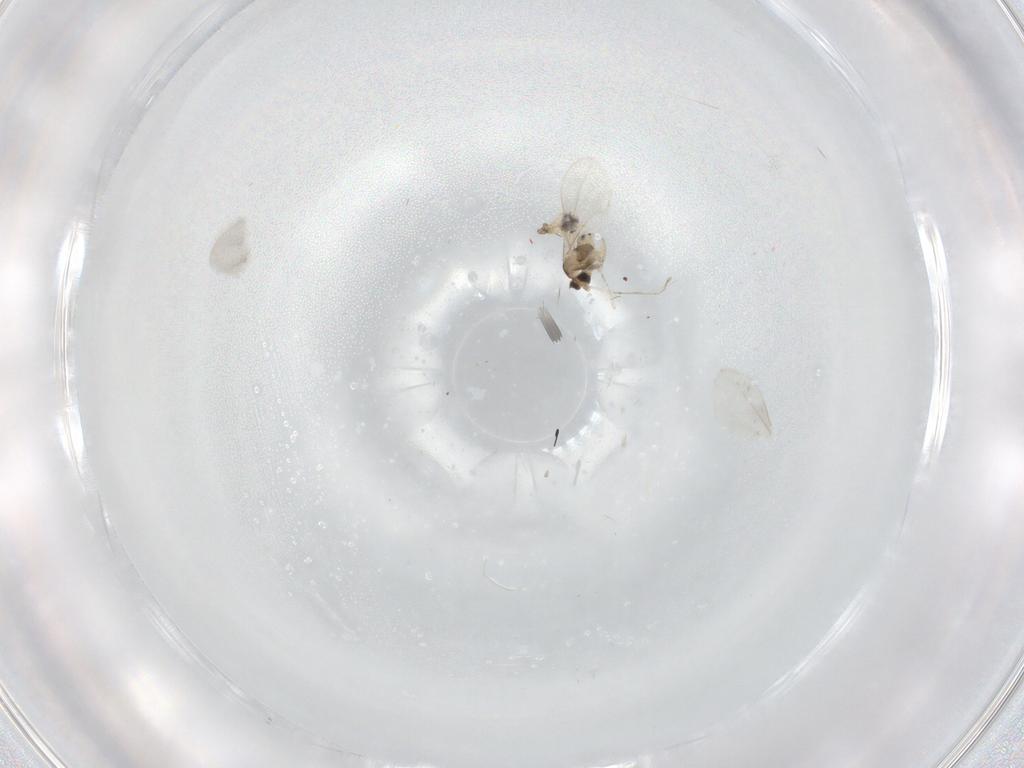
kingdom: Animalia
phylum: Arthropoda
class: Insecta
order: Diptera
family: Cecidomyiidae
